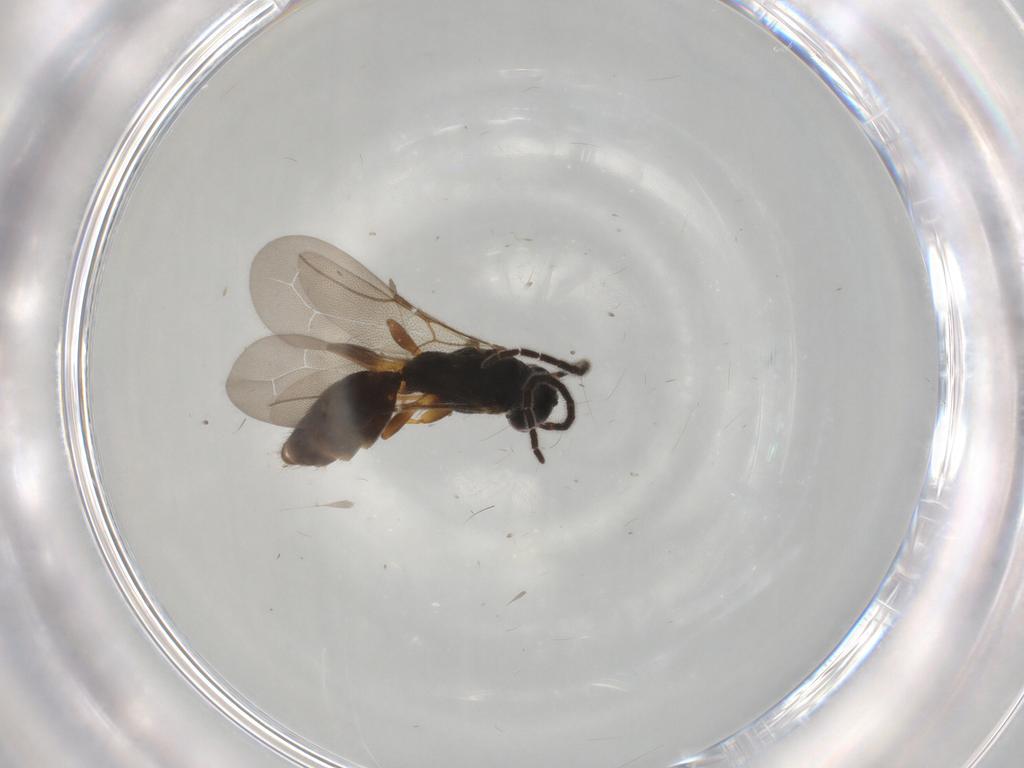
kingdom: Animalia
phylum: Arthropoda
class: Insecta
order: Hymenoptera
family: Bethylidae
